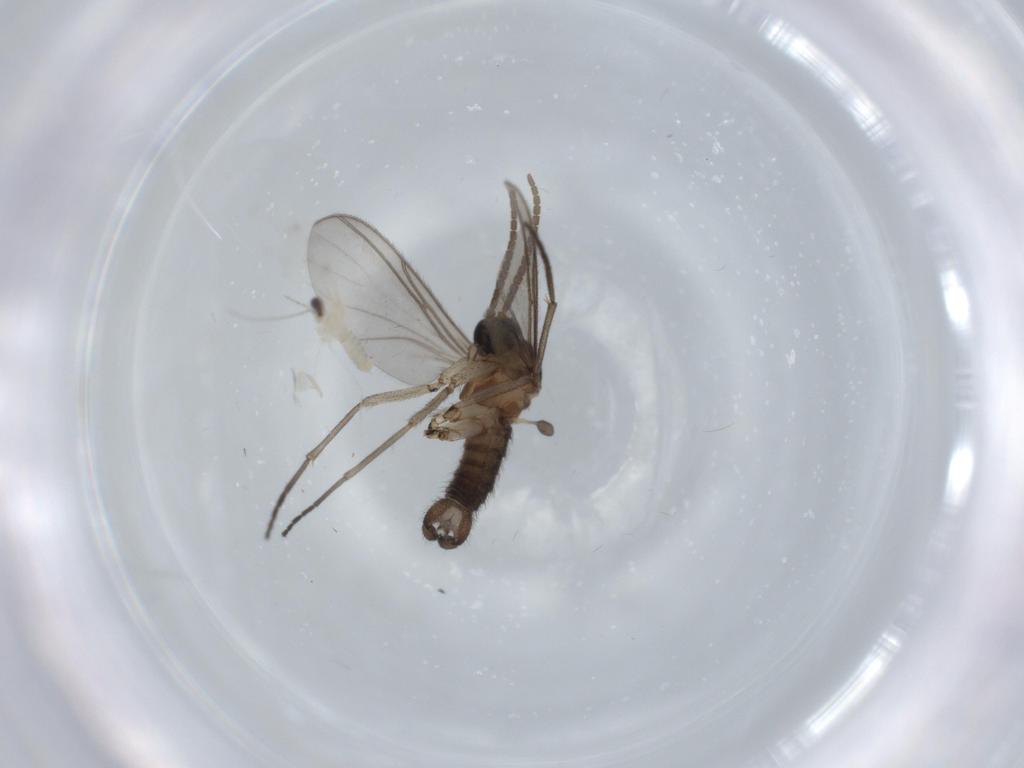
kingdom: Animalia
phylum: Arthropoda
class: Insecta
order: Diptera
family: Cecidomyiidae
